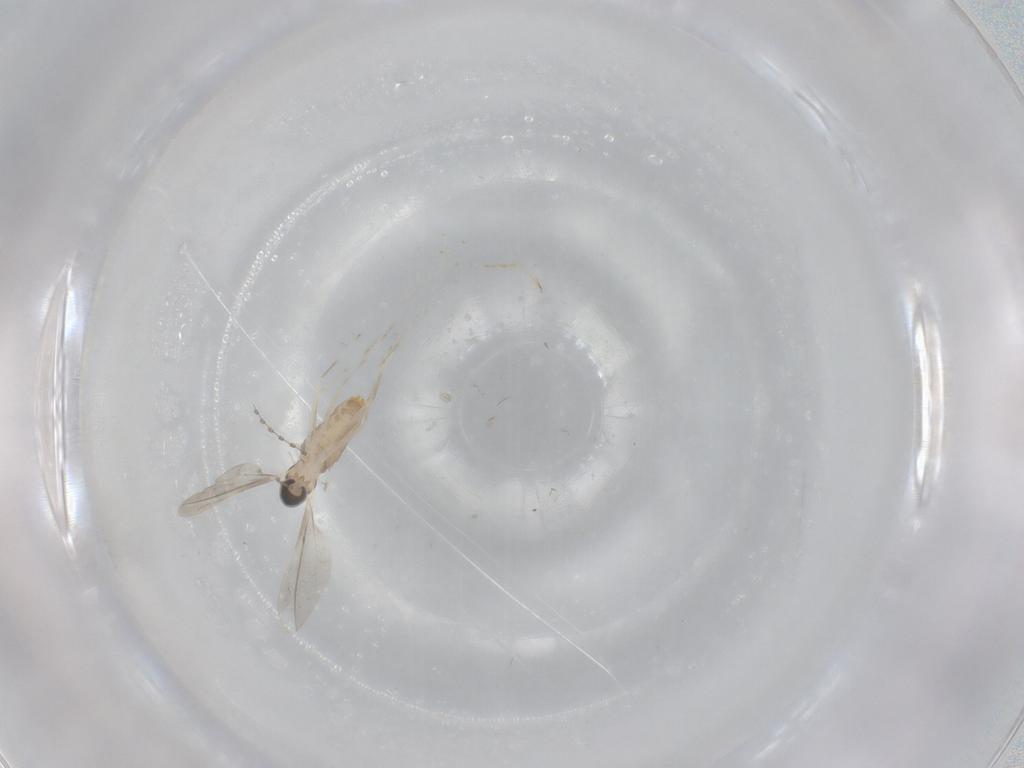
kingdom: Animalia
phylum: Arthropoda
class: Insecta
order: Diptera
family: Cecidomyiidae
